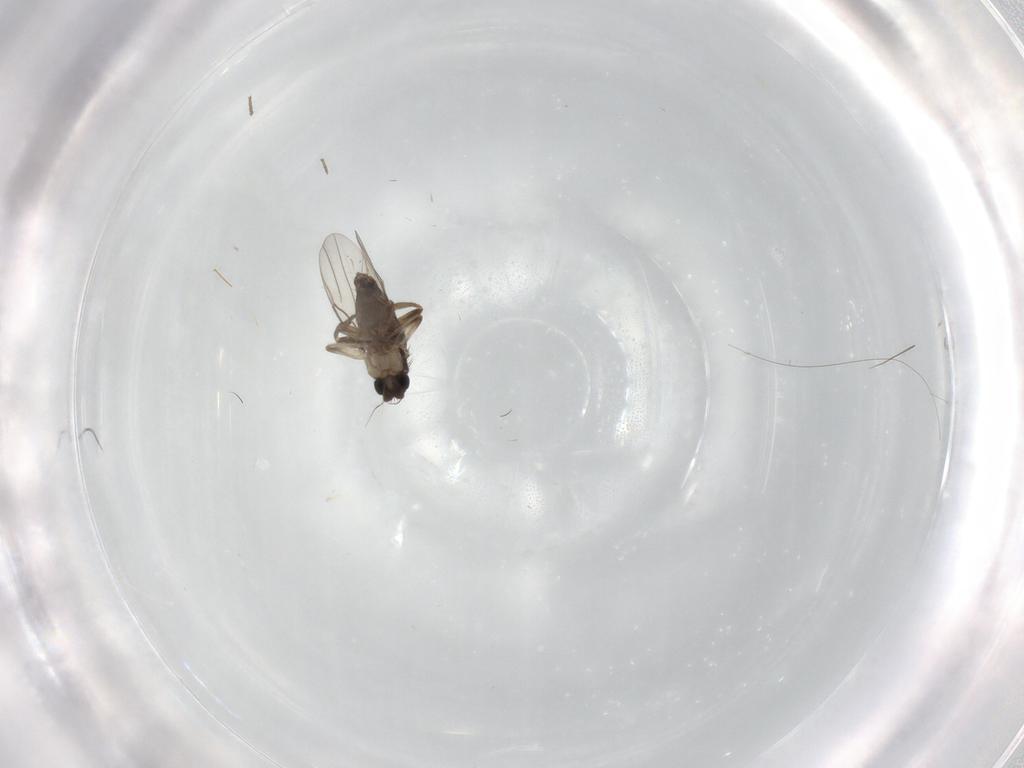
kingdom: Animalia
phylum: Arthropoda
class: Insecta
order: Diptera
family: Phoridae
